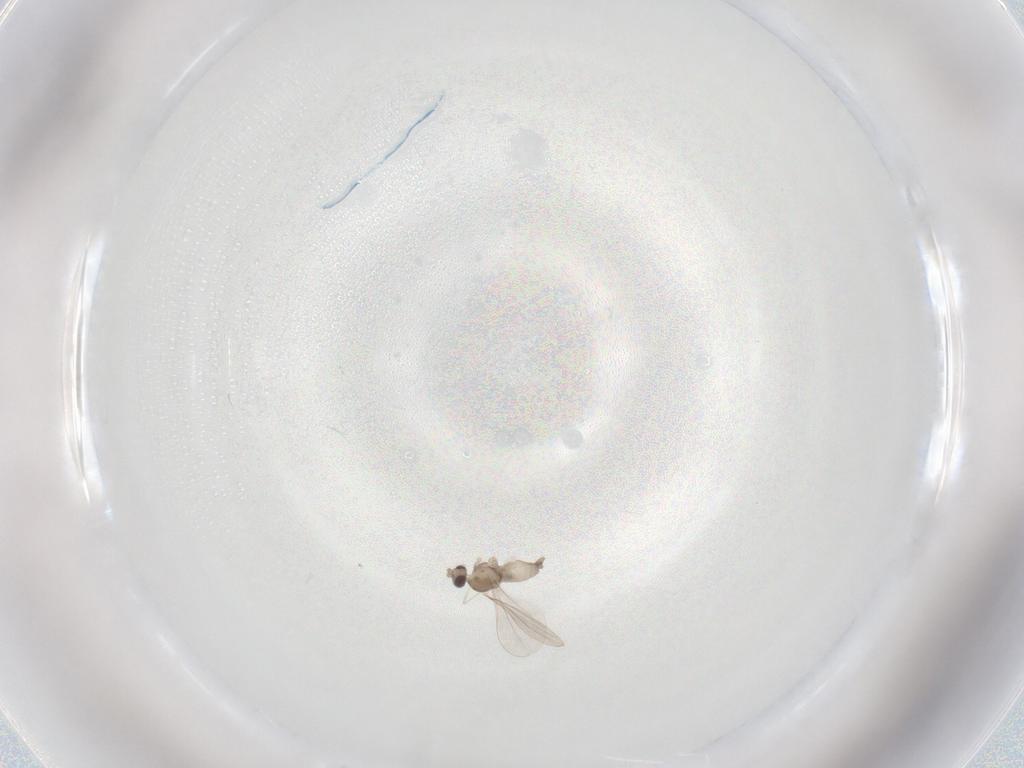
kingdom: Animalia
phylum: Arthropoda
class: Insecta
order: Diptera
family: Cecidomyiidae
